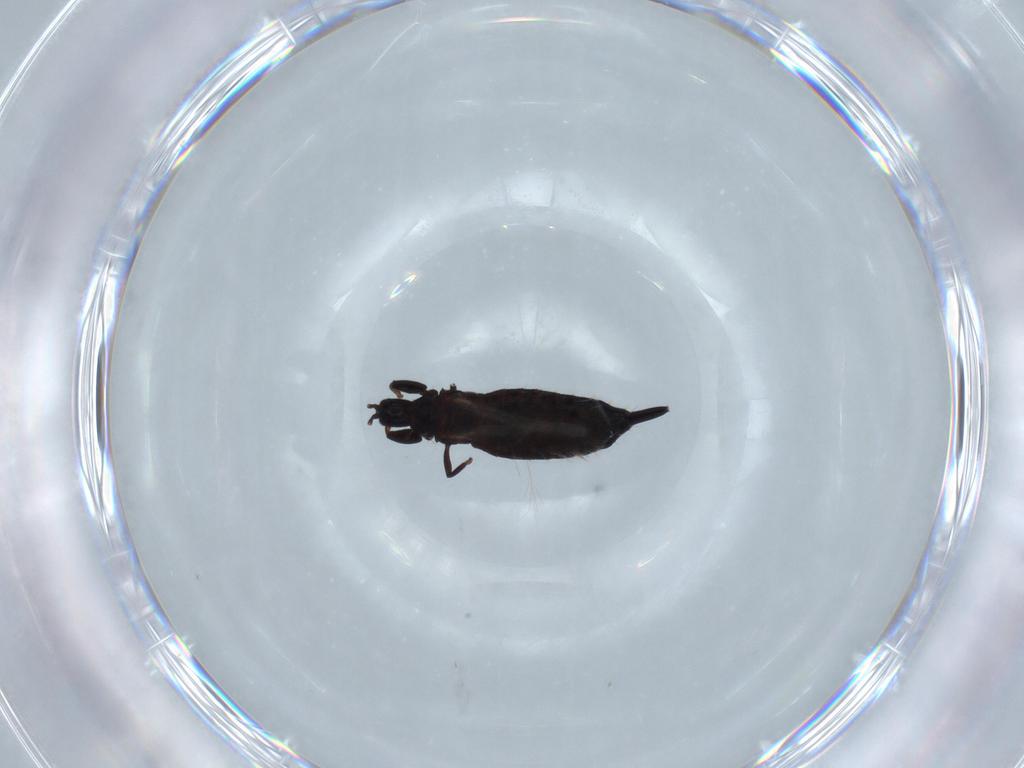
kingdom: Animalia
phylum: Arthropoda
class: Insecta
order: Thysanoptera
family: Phlaeothripidae
